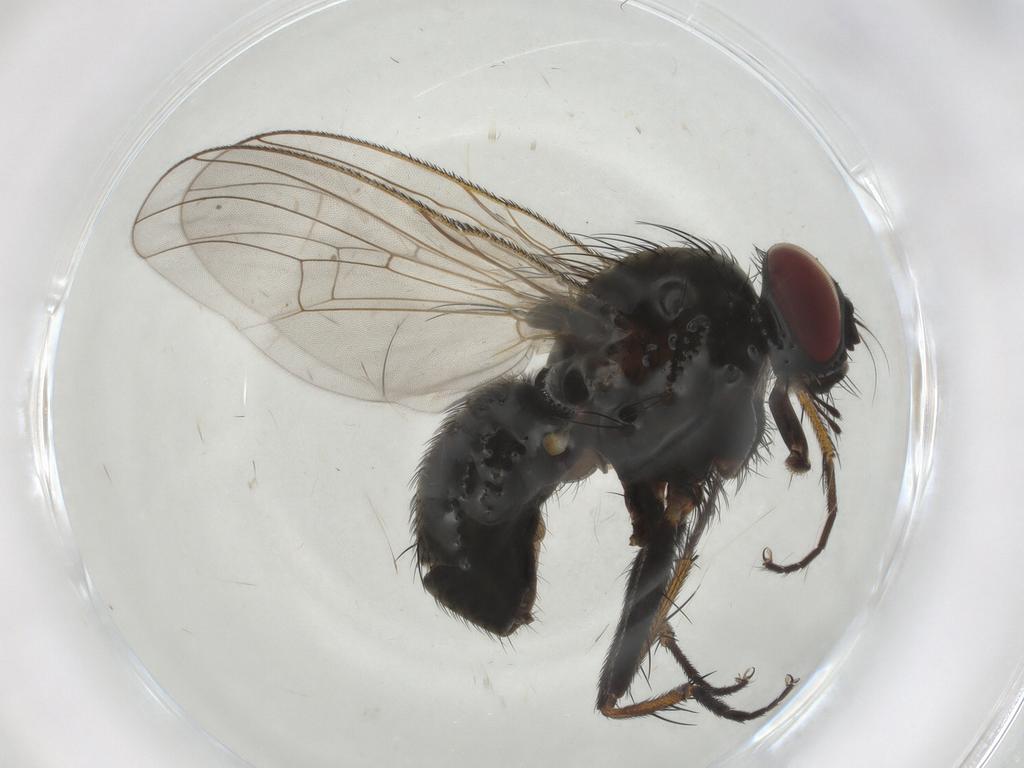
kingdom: Animalia
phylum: Arthropoda
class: Insecta
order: Diptera
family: Chironomidae
